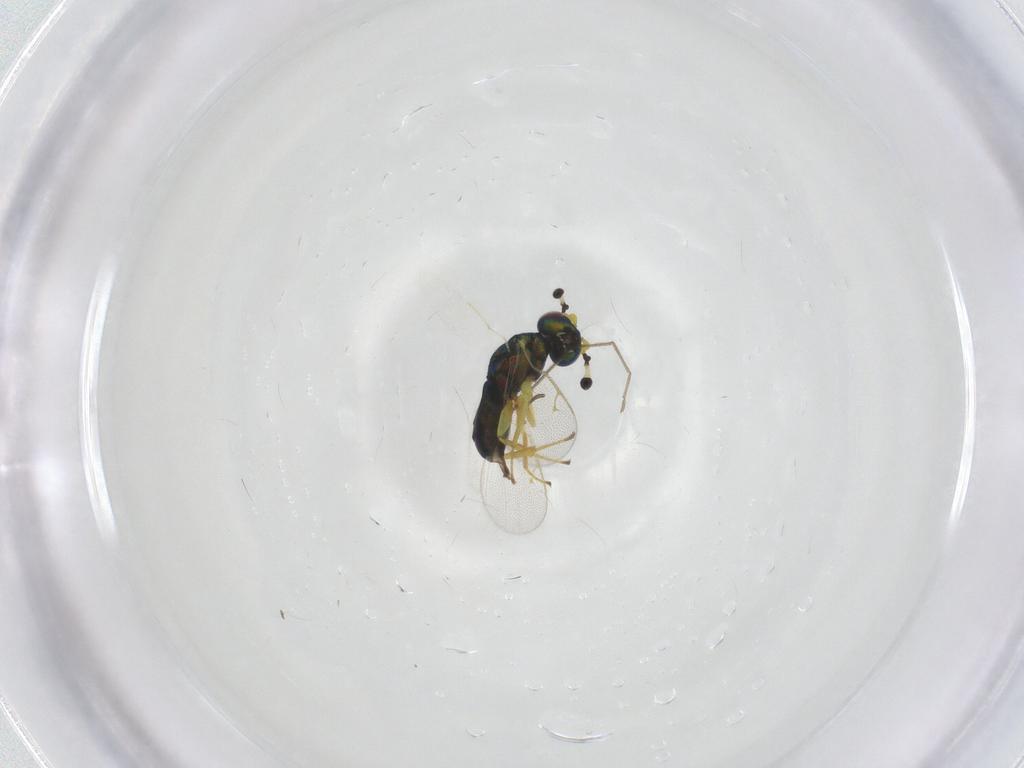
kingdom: Animalia
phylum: Arthropoda
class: Insecta
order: Hymenoptera
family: Pteromalidae
